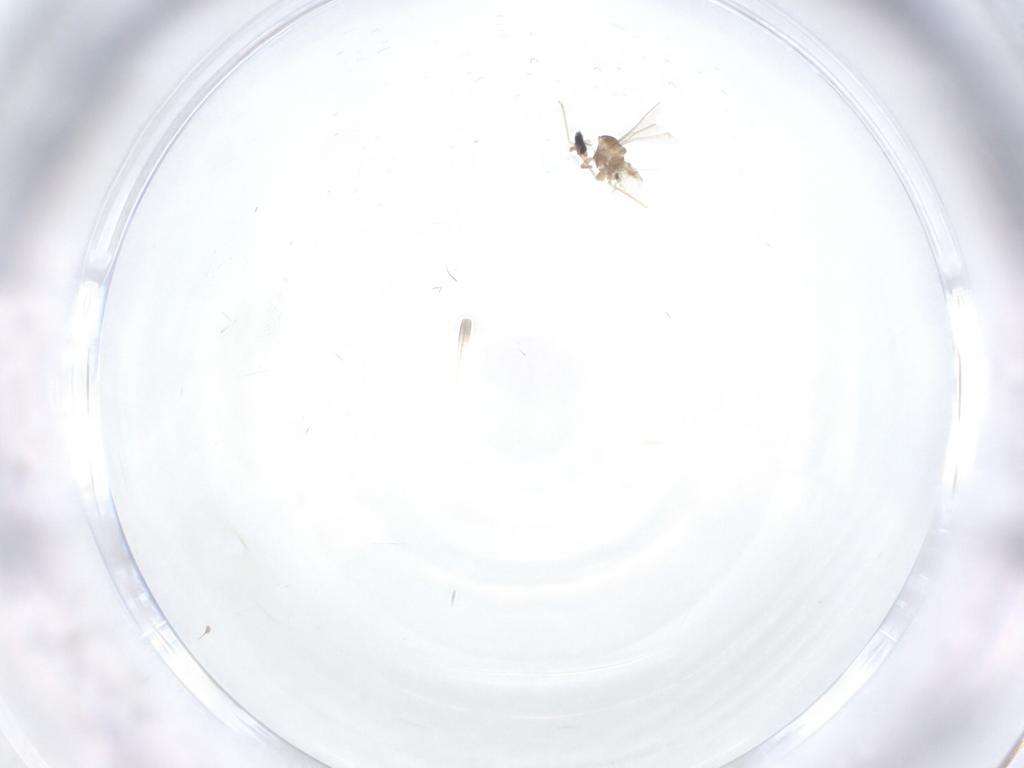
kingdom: Animalia
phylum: Arthropoda
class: Insecta
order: Diptera
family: Cecidomyiidae
